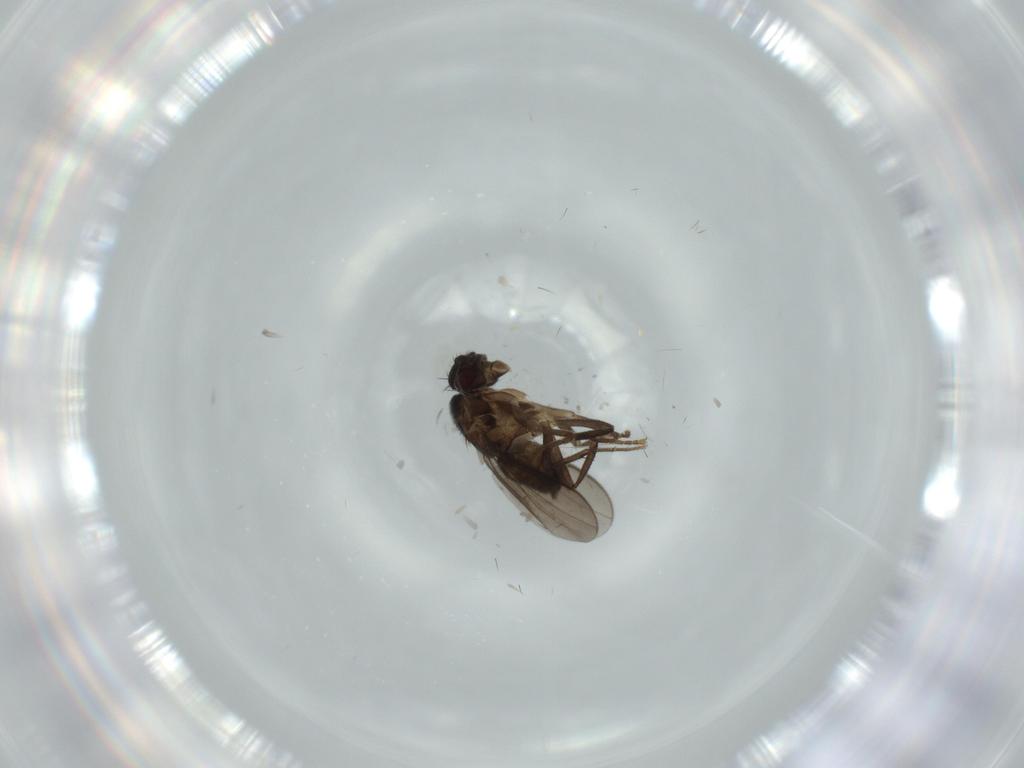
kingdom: Animalia
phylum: Arthropoda
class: Insecta
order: Diptera
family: Sphaeroceridae
